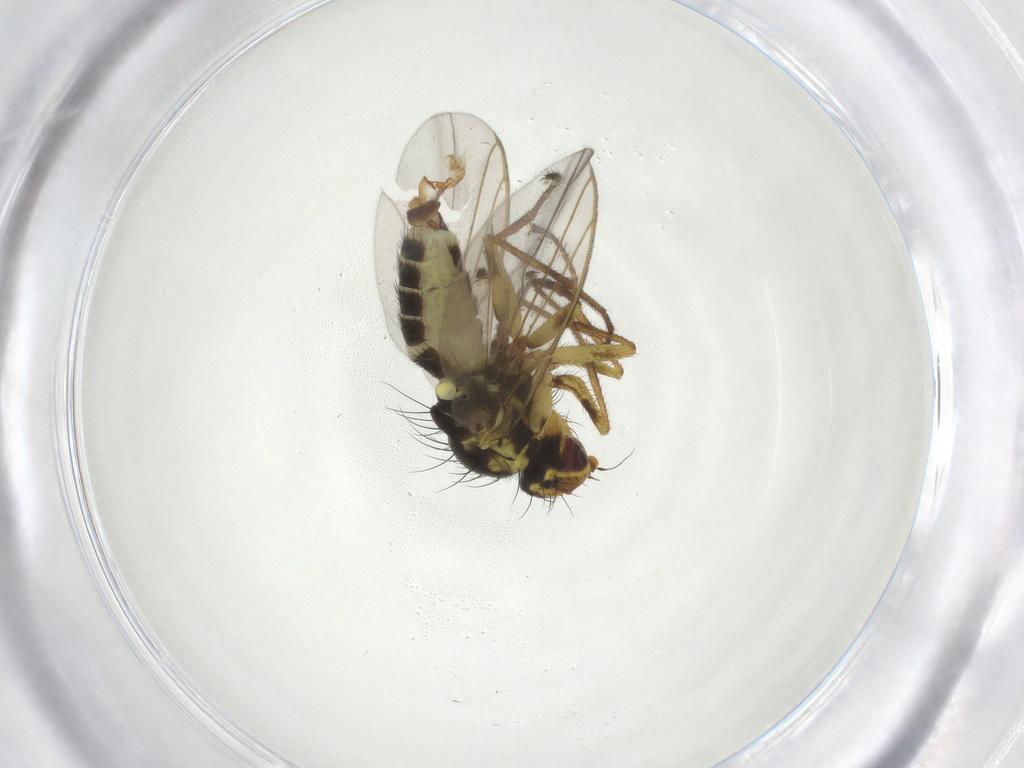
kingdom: Animalia
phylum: Arthropoda
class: Insecta
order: Diptera
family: Agromyzidae
